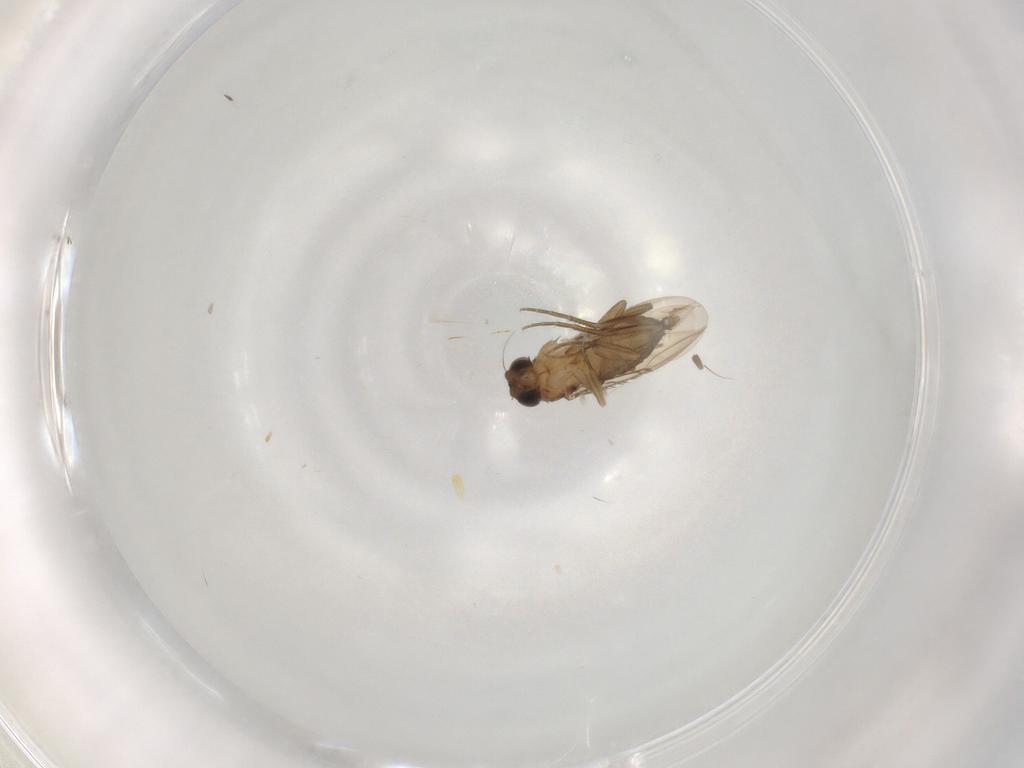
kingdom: Animalia
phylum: Arthropoda
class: Insecta
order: Diptera
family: Phoridae
